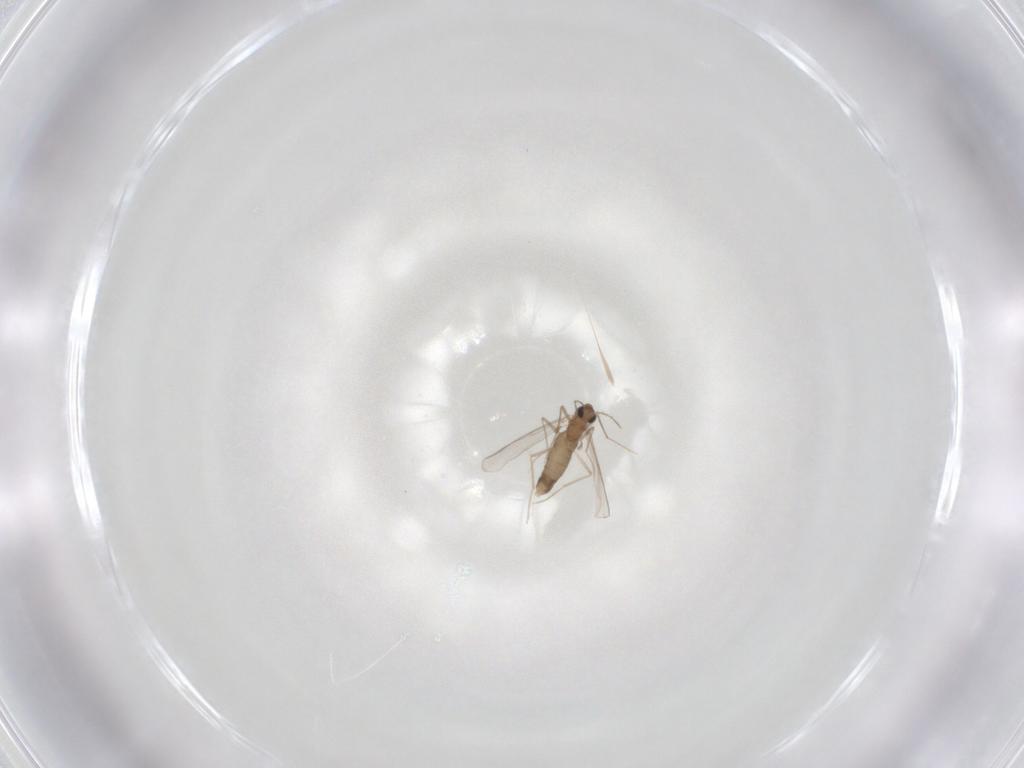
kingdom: Animalia
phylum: Arthropoda
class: Insecta
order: Diptera
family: Chironomidae
